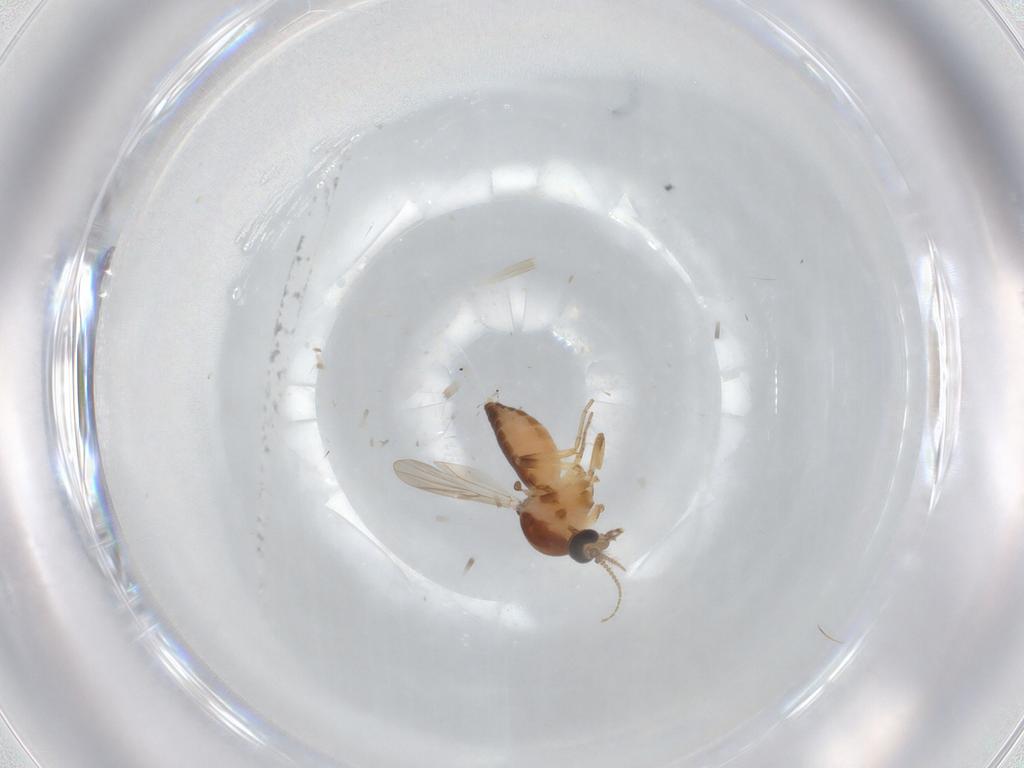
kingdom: Animalia
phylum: Arthropoda
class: Insecta
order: Diptera
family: Ceratopogonidae
